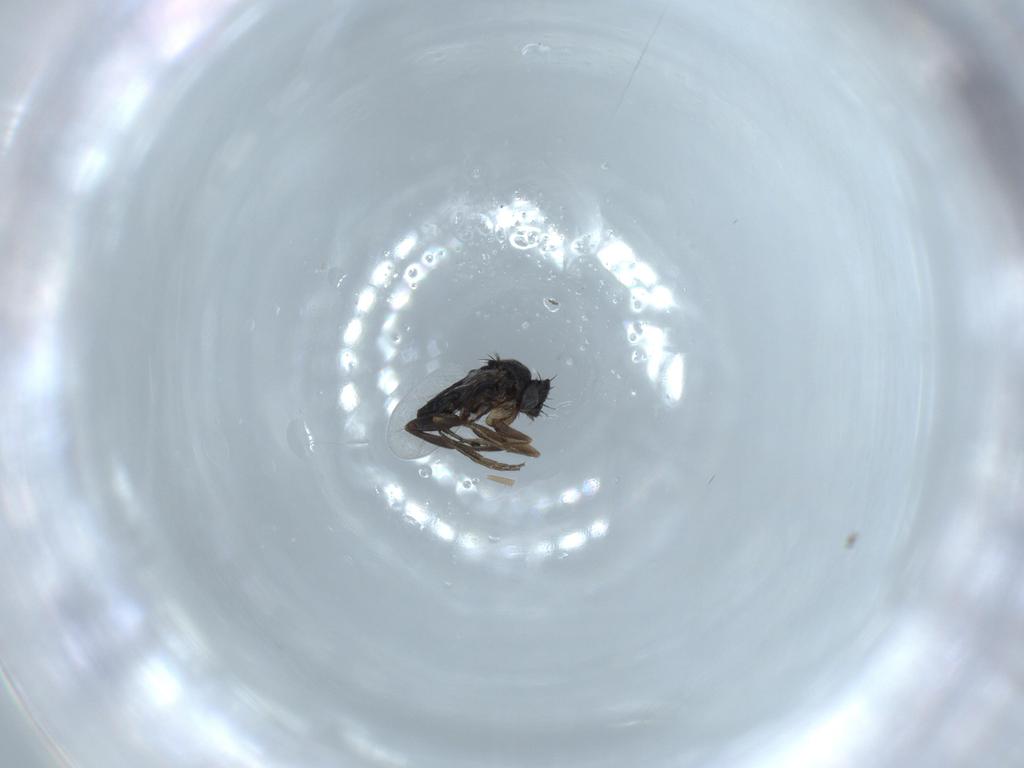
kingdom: Animalia
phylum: Arthropoda
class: Insecta
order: Diptera
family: Phoridae
